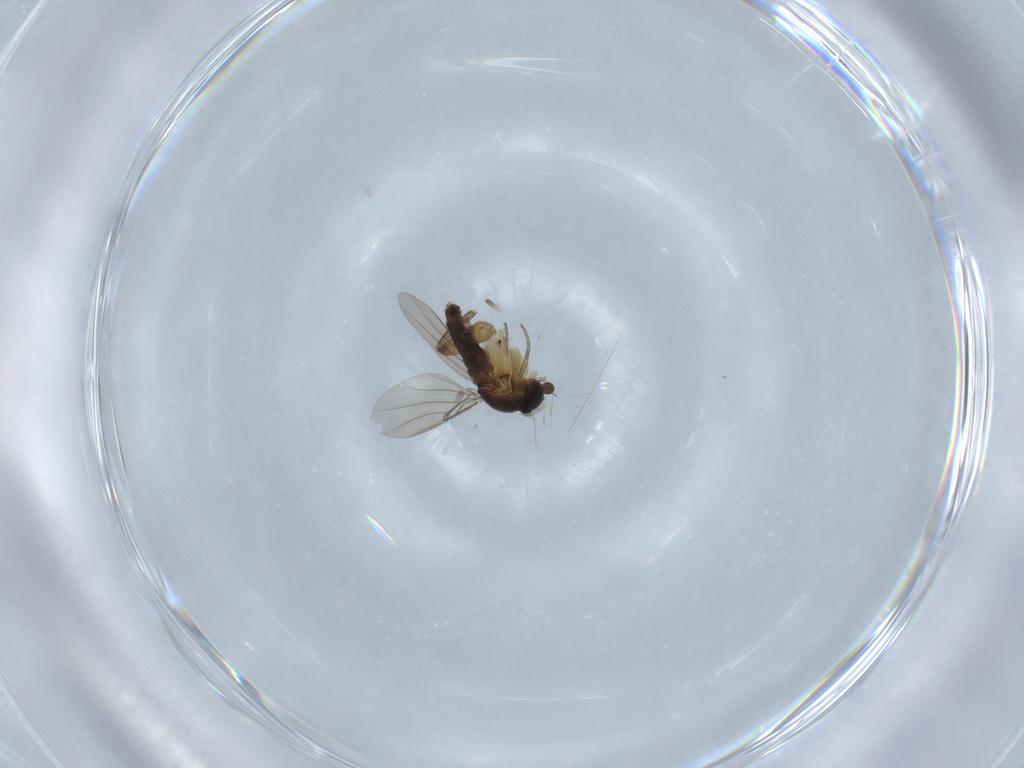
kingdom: Animalia
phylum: Arthropoda
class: Insecta
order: Diptera
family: Phoridae
